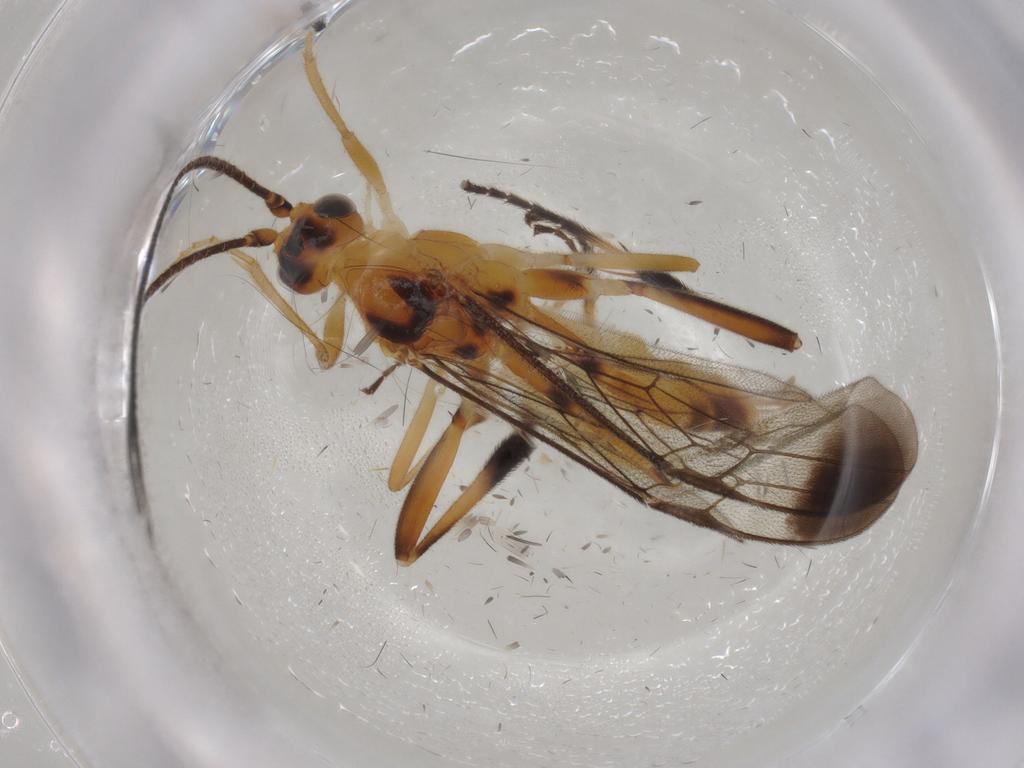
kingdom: Animalia
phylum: Arthropoda
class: Insecta
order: Hymenoptera
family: Braconidae
